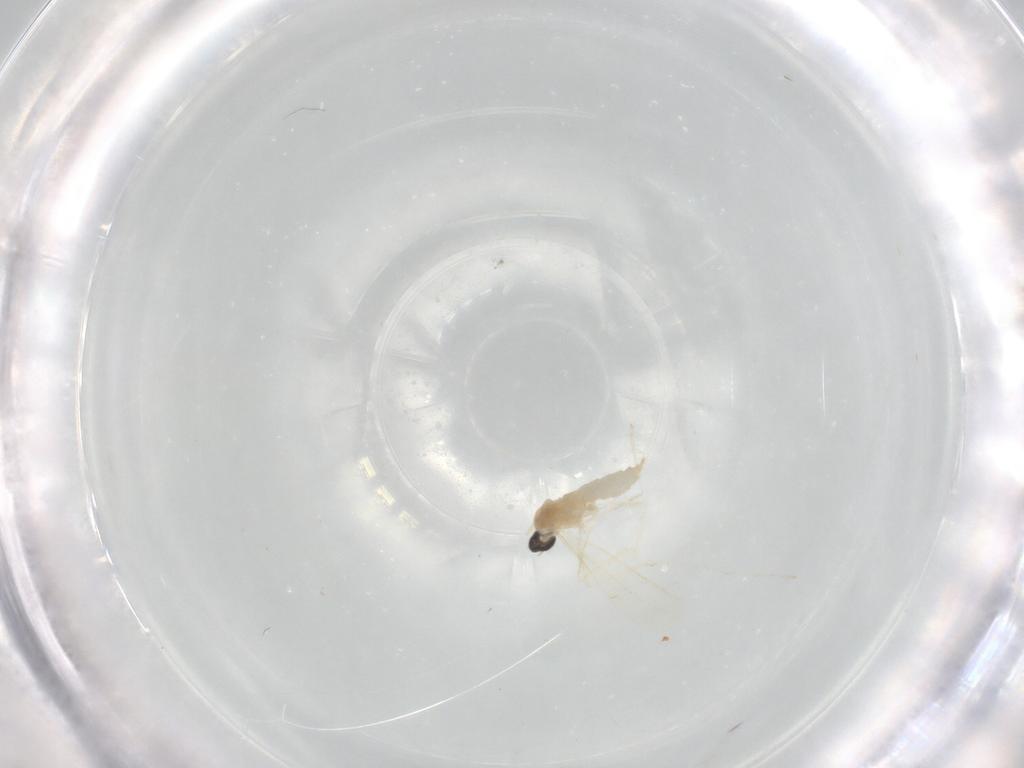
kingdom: Animalia
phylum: Arthropoda
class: Insecta
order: Diptera
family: Cecidomyiidae
